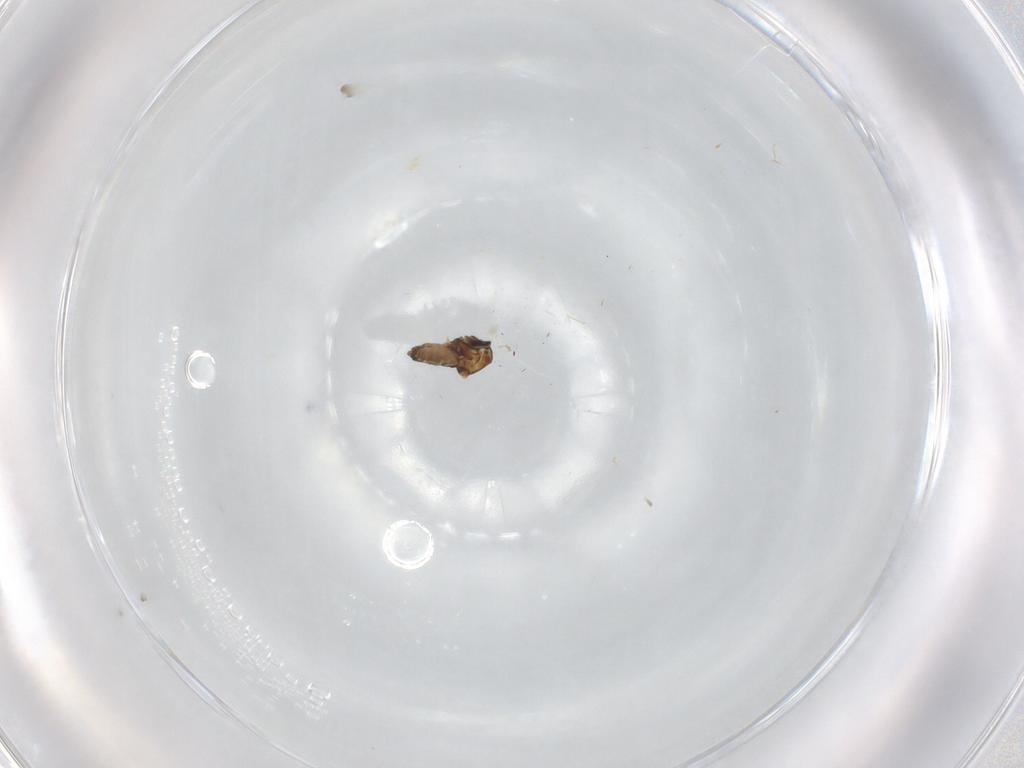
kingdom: Animalia
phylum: Arthropoda
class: Insecta
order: Diptera
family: Ceratopogonidae
